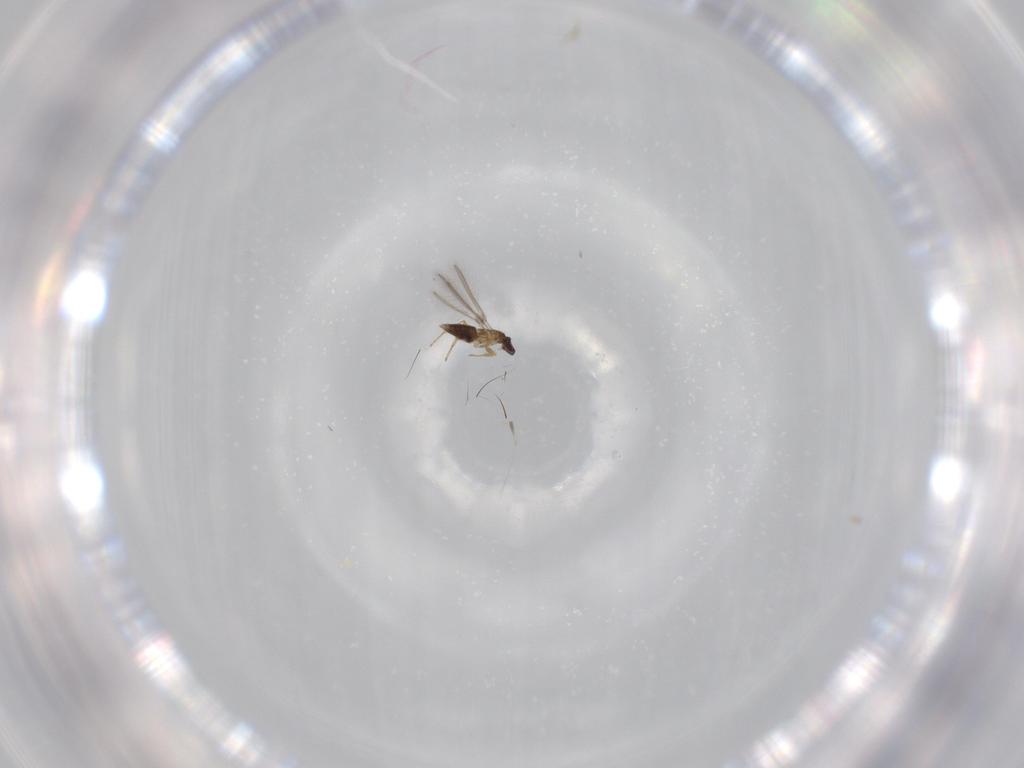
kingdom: Animalia
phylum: Arthropoda
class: Insecta
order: Hymenoptera
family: Mymaridae
